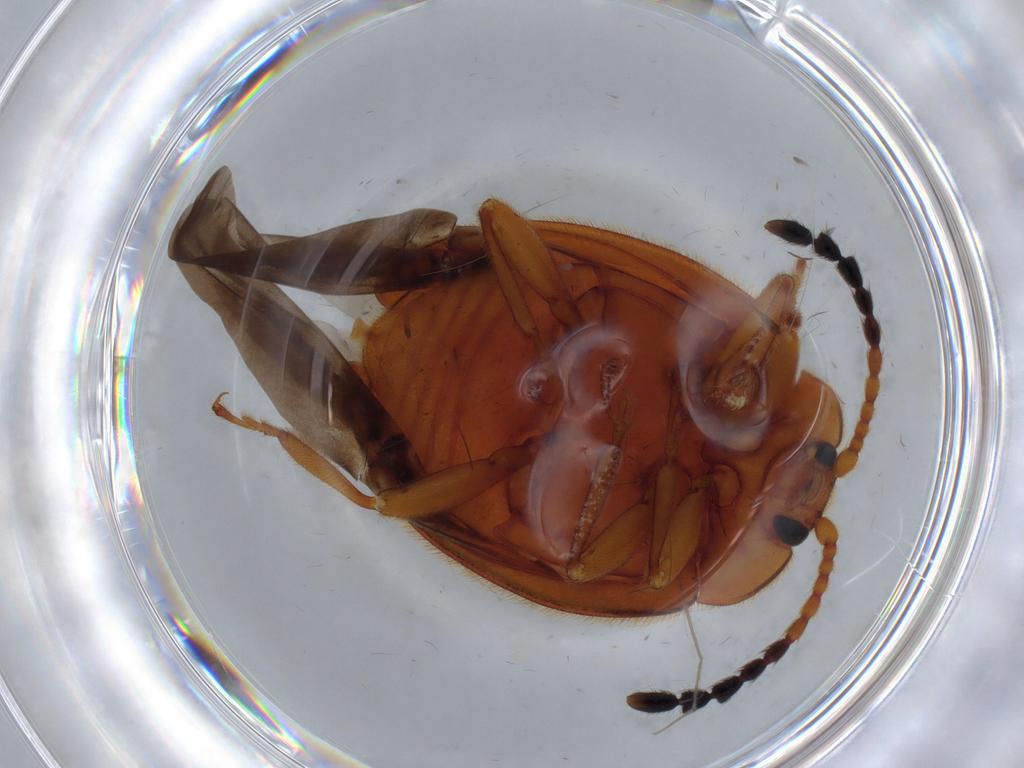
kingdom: Animalia
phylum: Arthropoda
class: Insecta
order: Coleoptera
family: Endomychidae
